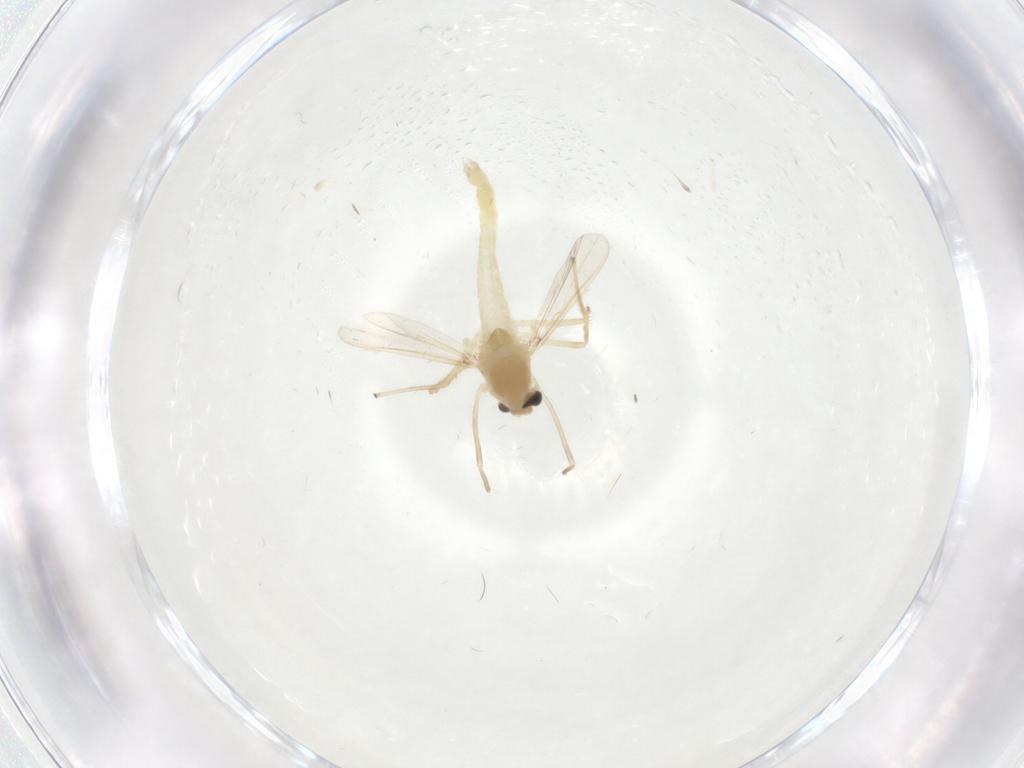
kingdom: Animalia
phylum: Arthropoda
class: Insecta
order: Diptera
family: Chironomidae
